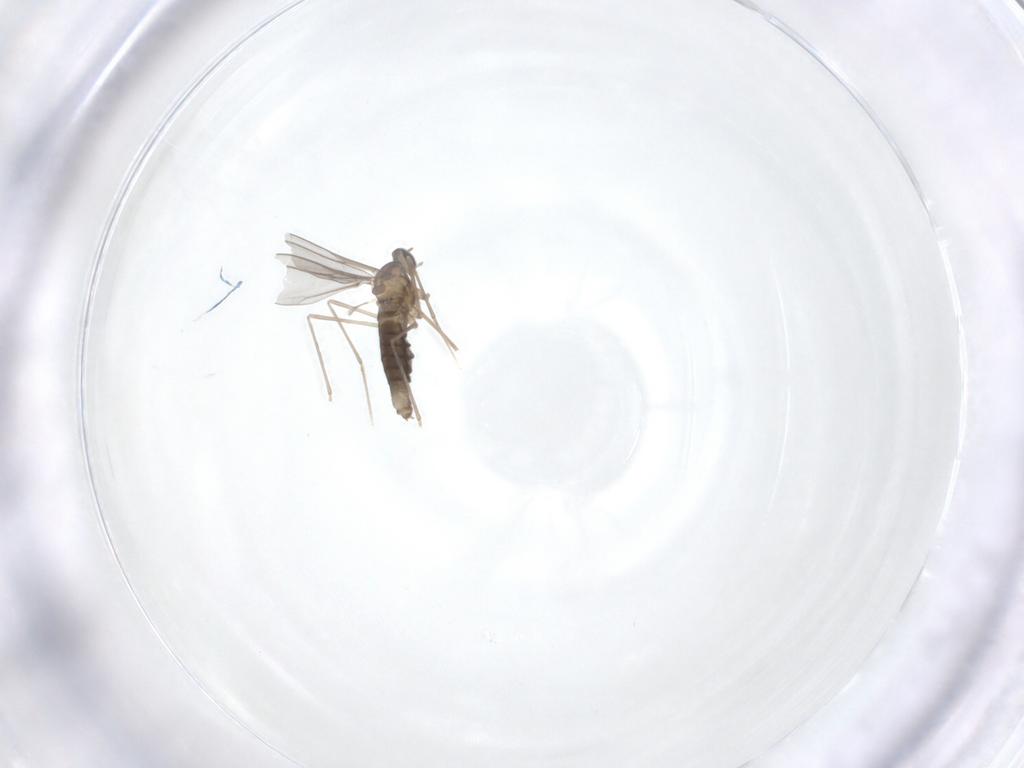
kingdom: Animalia
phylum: Arthropoda
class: Insecta
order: Diptera
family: Cecidomyiidae
